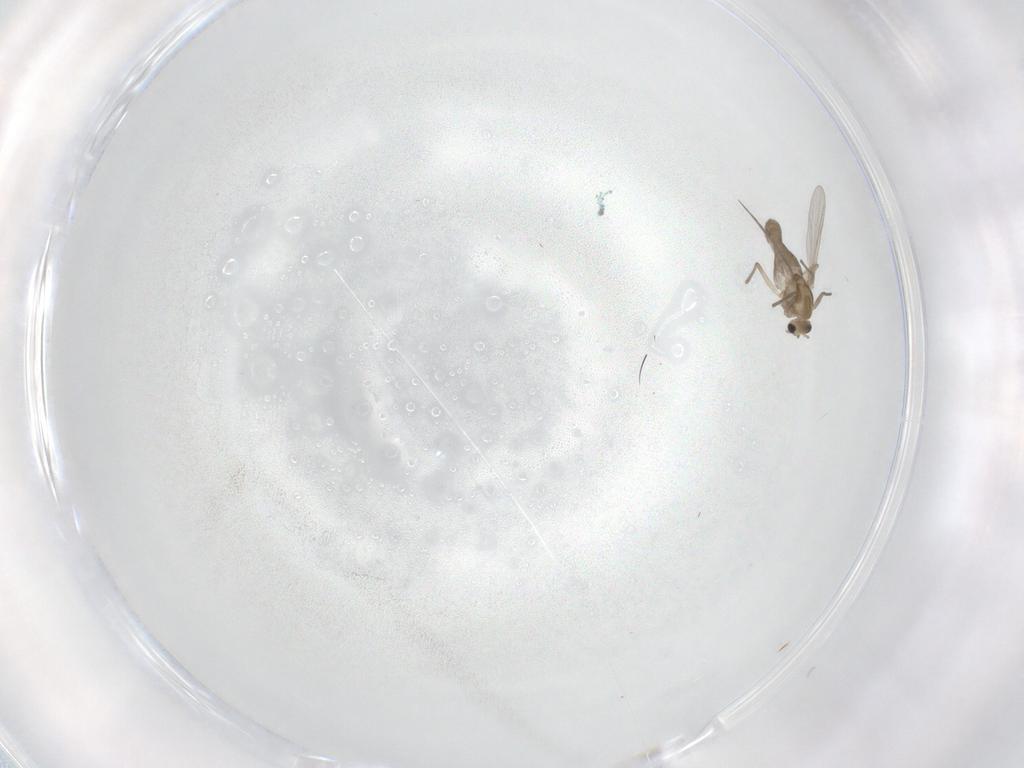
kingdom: Animalia
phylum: Arthropoda
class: Insecta
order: Diptera
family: Chironomidae
